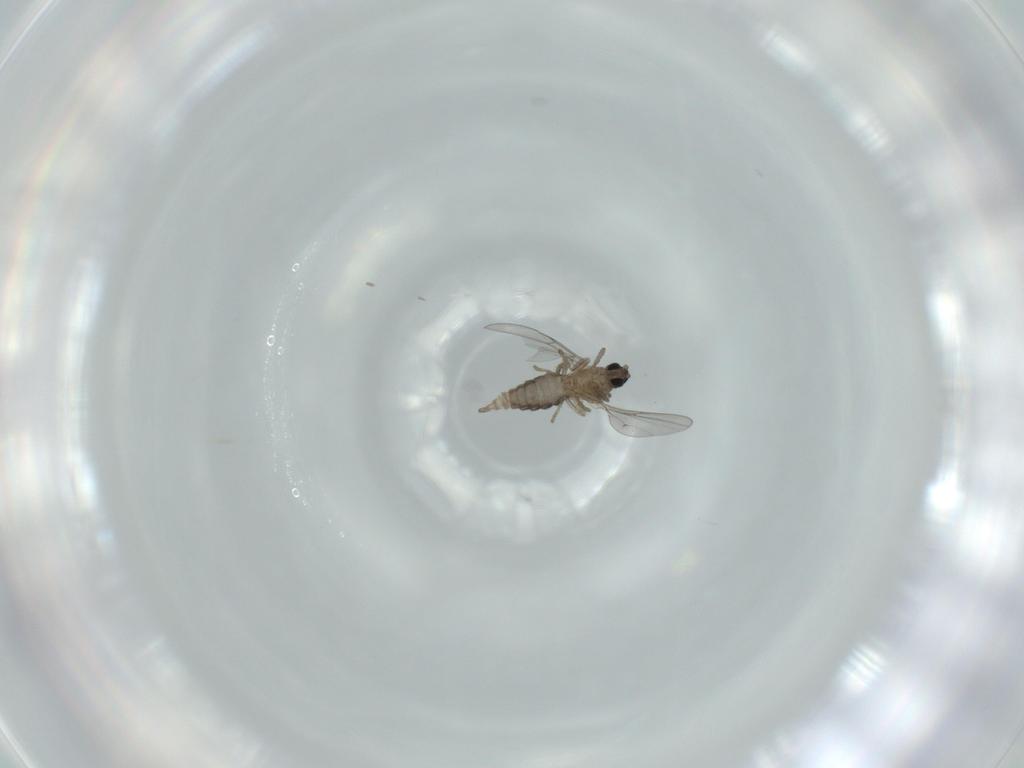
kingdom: Animalia
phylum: Arthropoda
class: Insecta
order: Diptera
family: Cecidomyiidae
